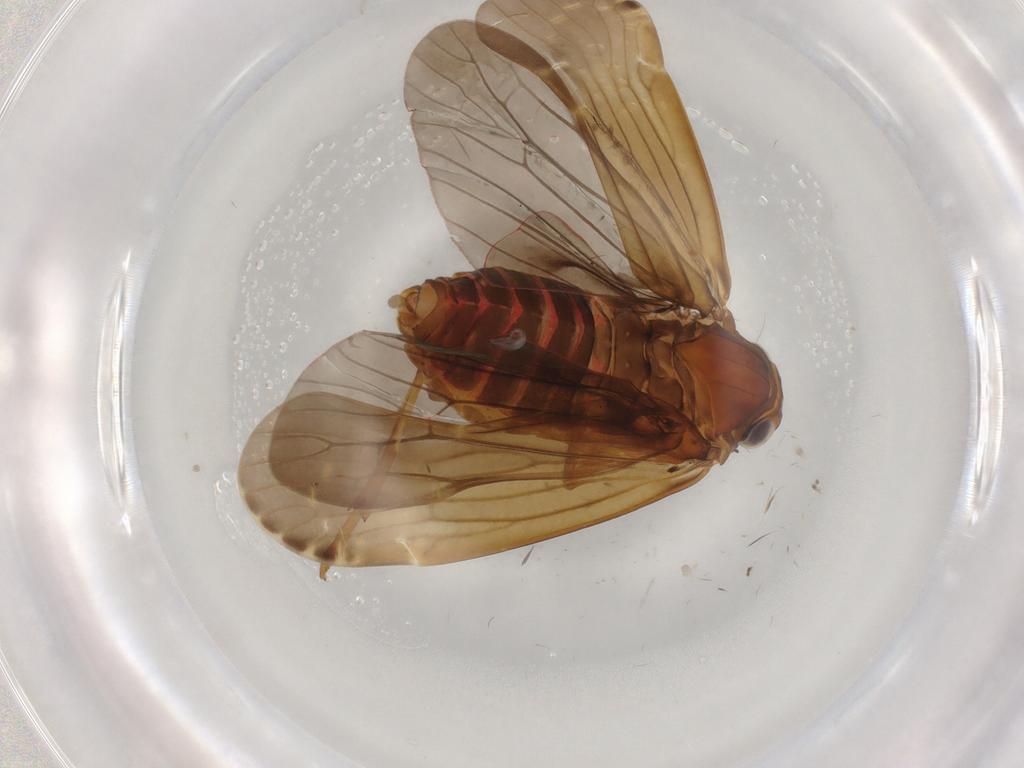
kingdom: Animalia
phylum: Arthropoda
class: Insecta
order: Hemiptera
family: Achilidae
